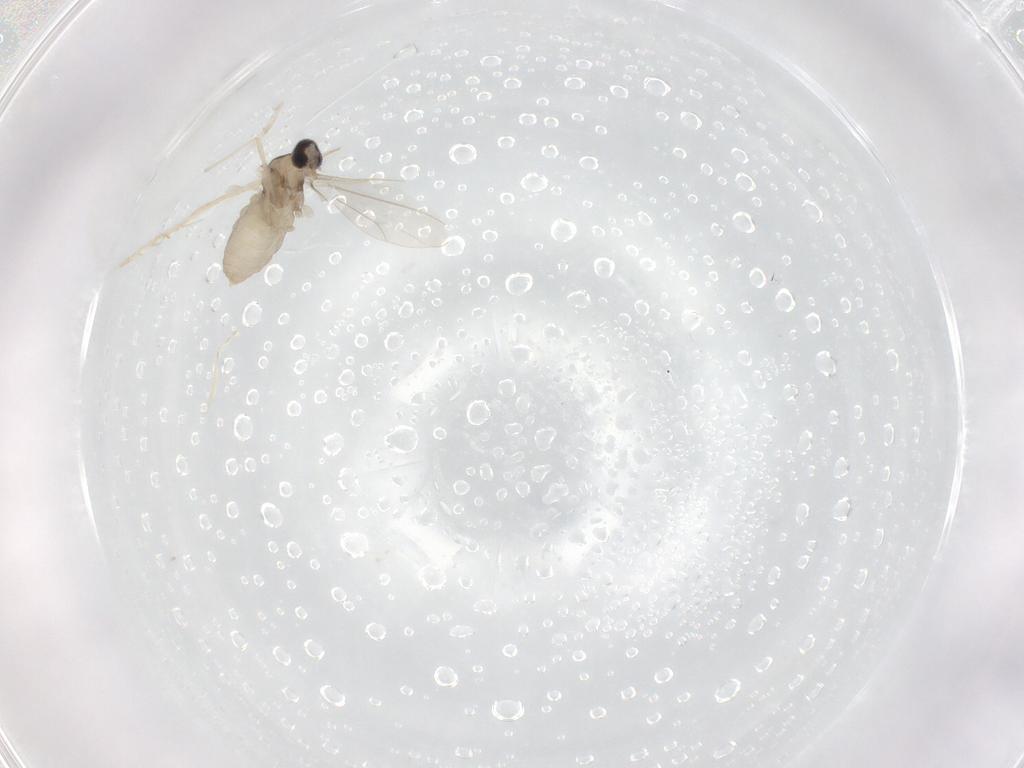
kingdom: Animalia
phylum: Arthropoda
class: Insecta
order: Diptera
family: Cecidomyiidae
